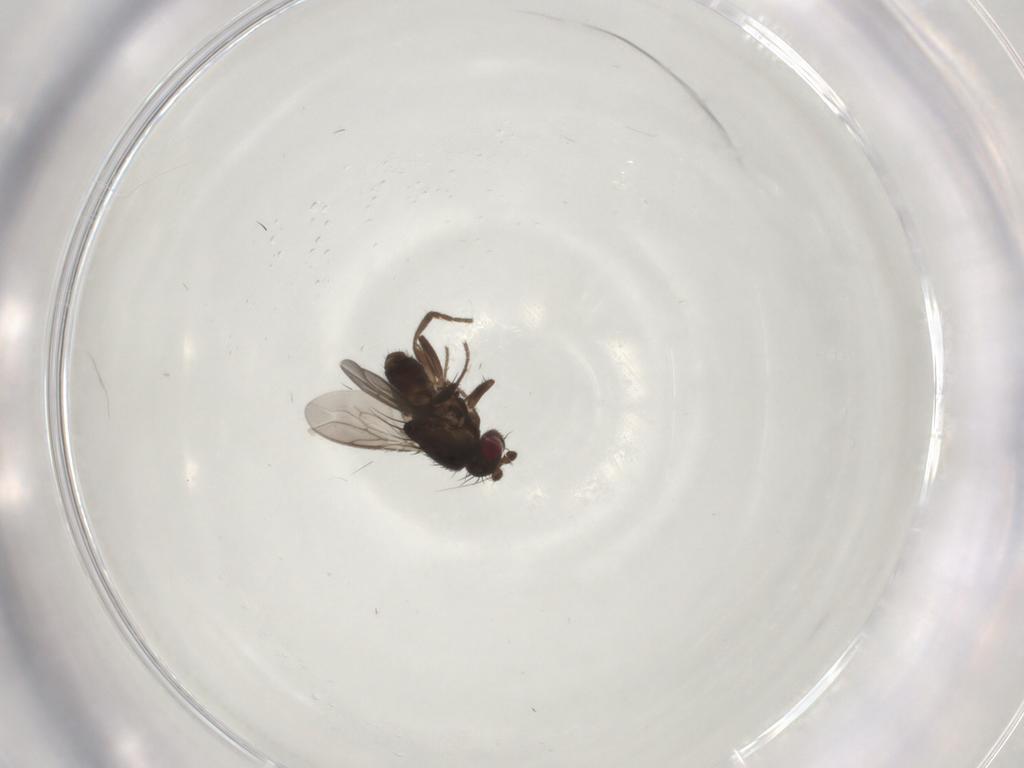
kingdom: Animalia
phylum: Arthropoda
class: Insecta
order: Diptera
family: Sphaeroceridae
